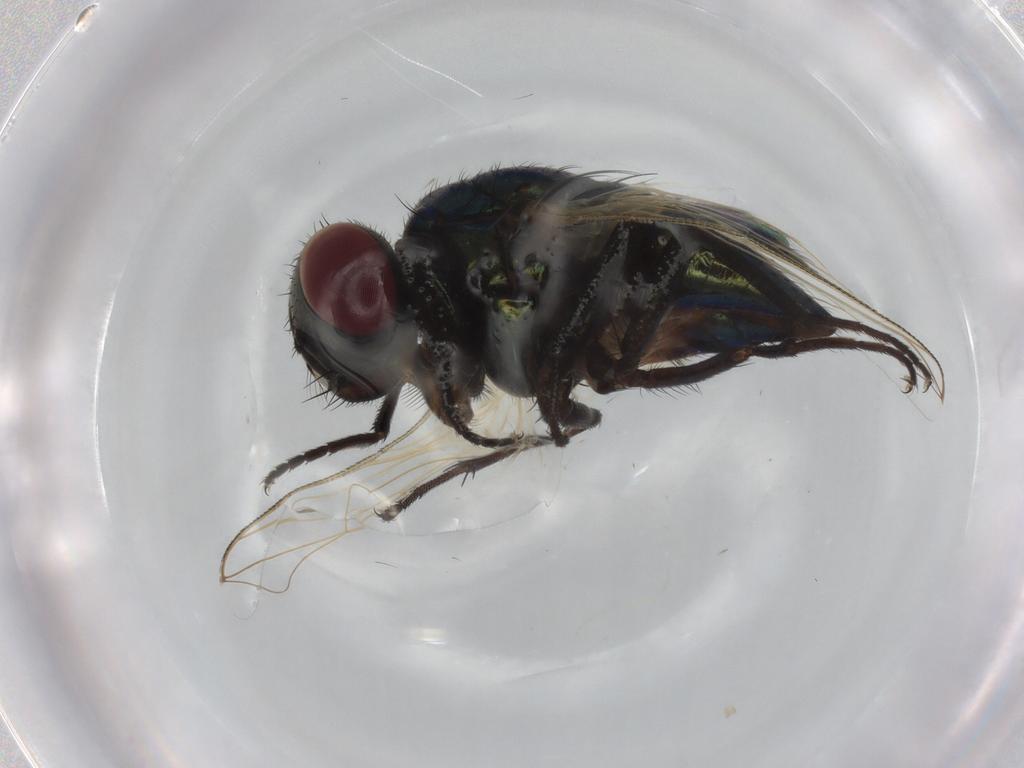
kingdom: Animalia
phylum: Arthropoda
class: Insecta
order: Diptera
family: Muscidae
